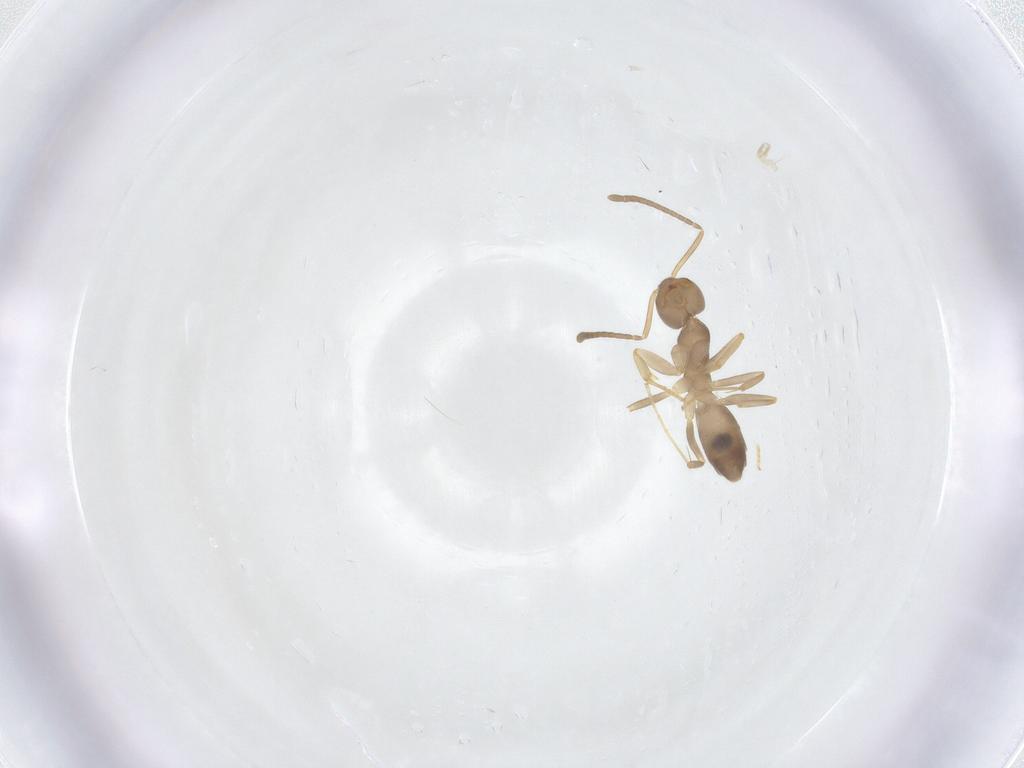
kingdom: Animalia
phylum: Arthropoda
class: Insecta
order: Hymenoptera
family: Formicidae
